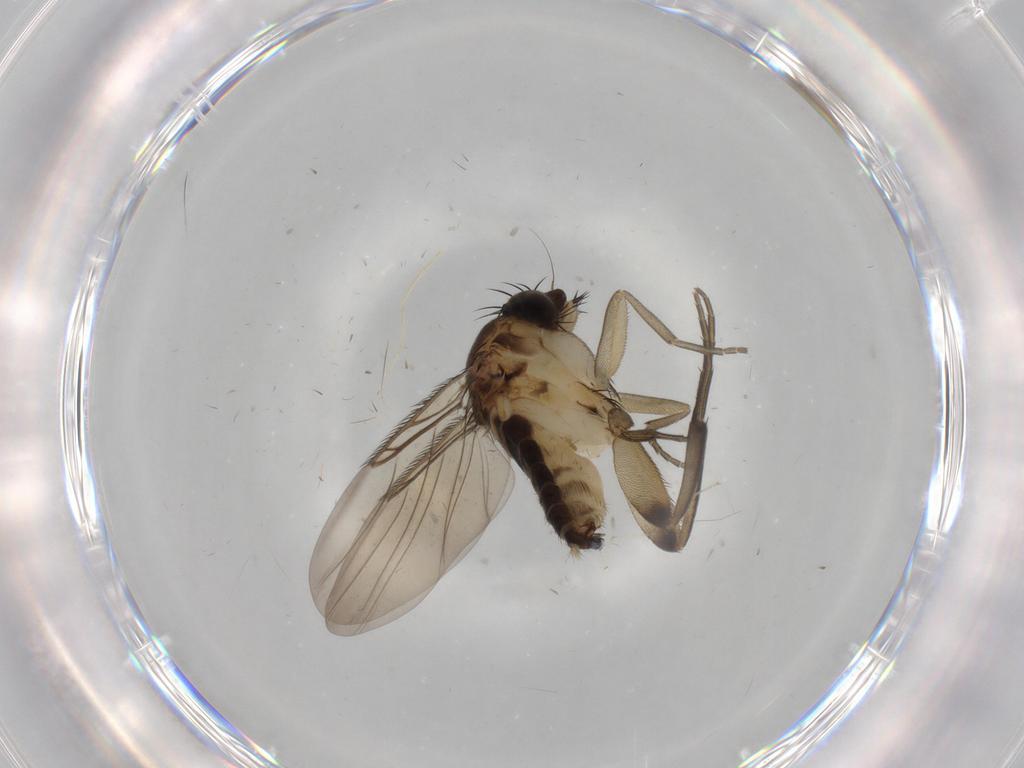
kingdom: Animalia
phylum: Arthropoda
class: Insecta
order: Diptera
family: Phoridae
